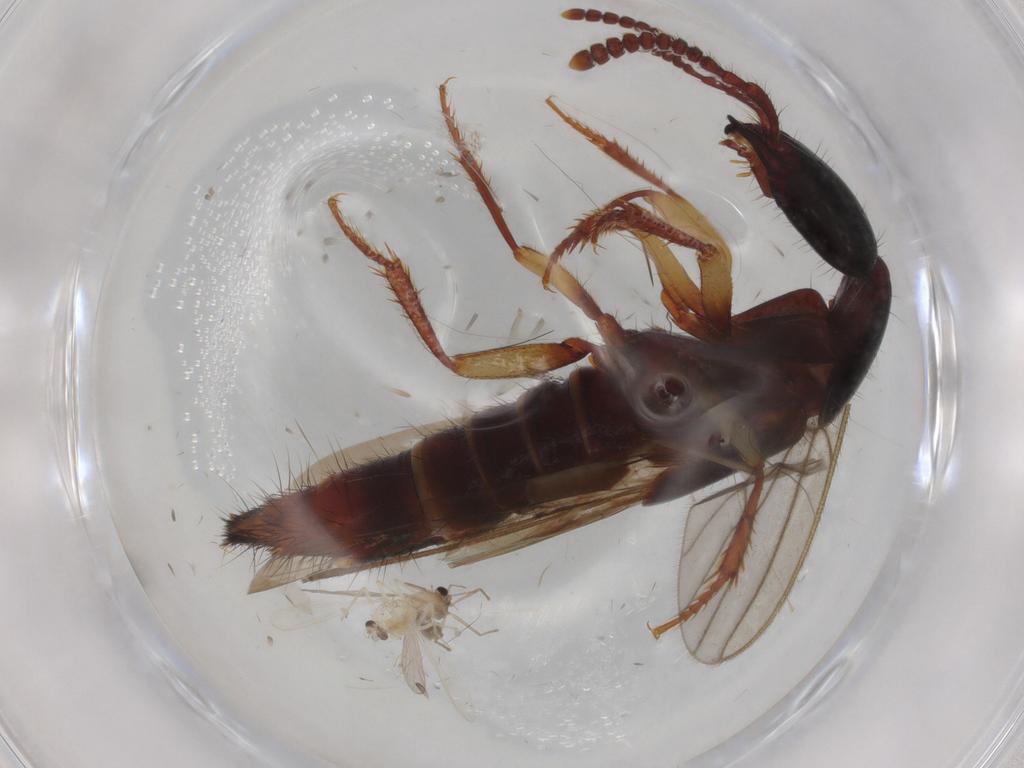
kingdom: Animalia
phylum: Arthropoda
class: Insecta
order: Diptera
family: Chironomidae
